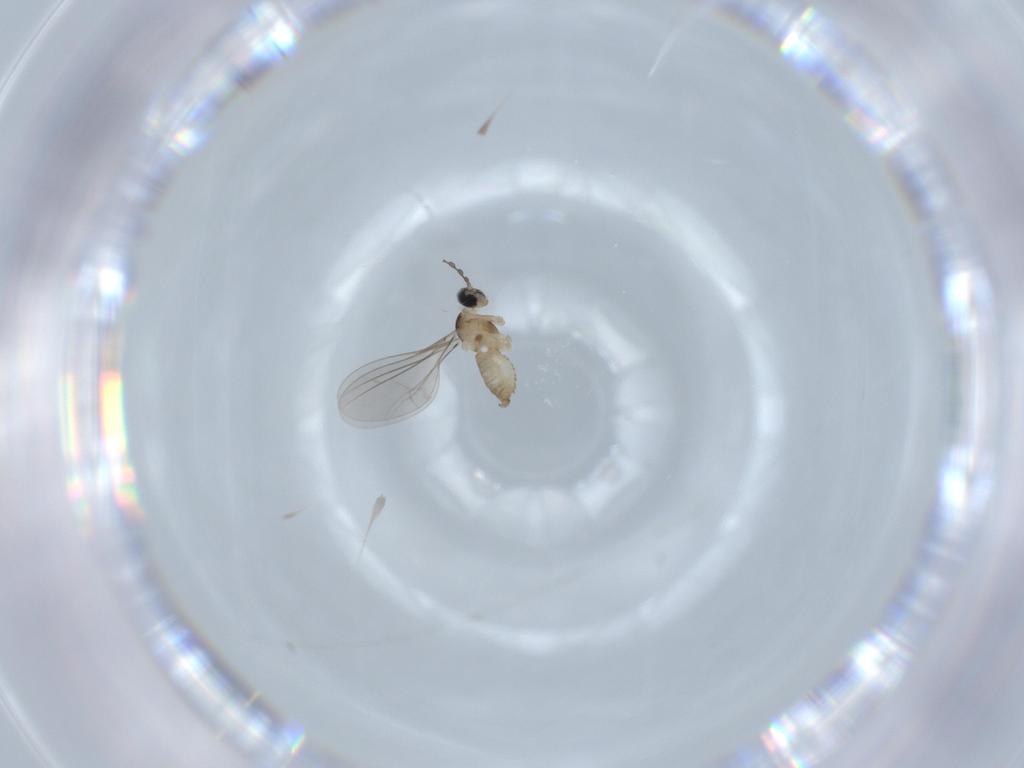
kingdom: Animalia
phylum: Arthropoda
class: Insecta
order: Diptera
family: Cecidomyiidae
